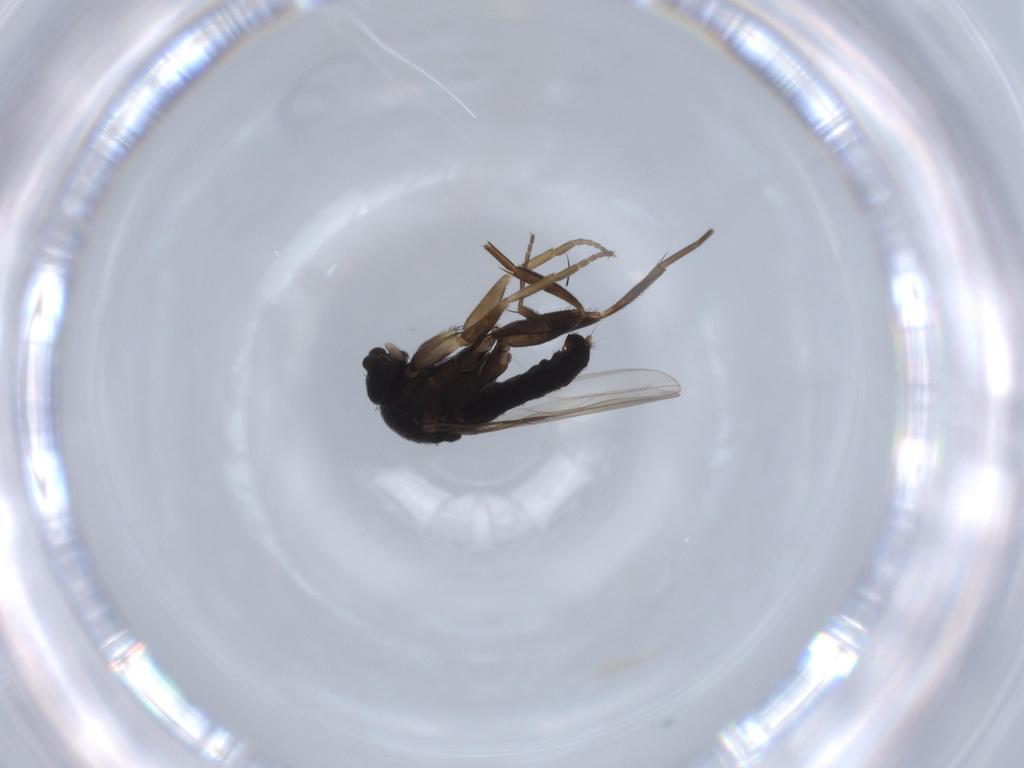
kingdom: Animalia
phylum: Arthropoda
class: Insecta
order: Diptera
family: Phoridae
